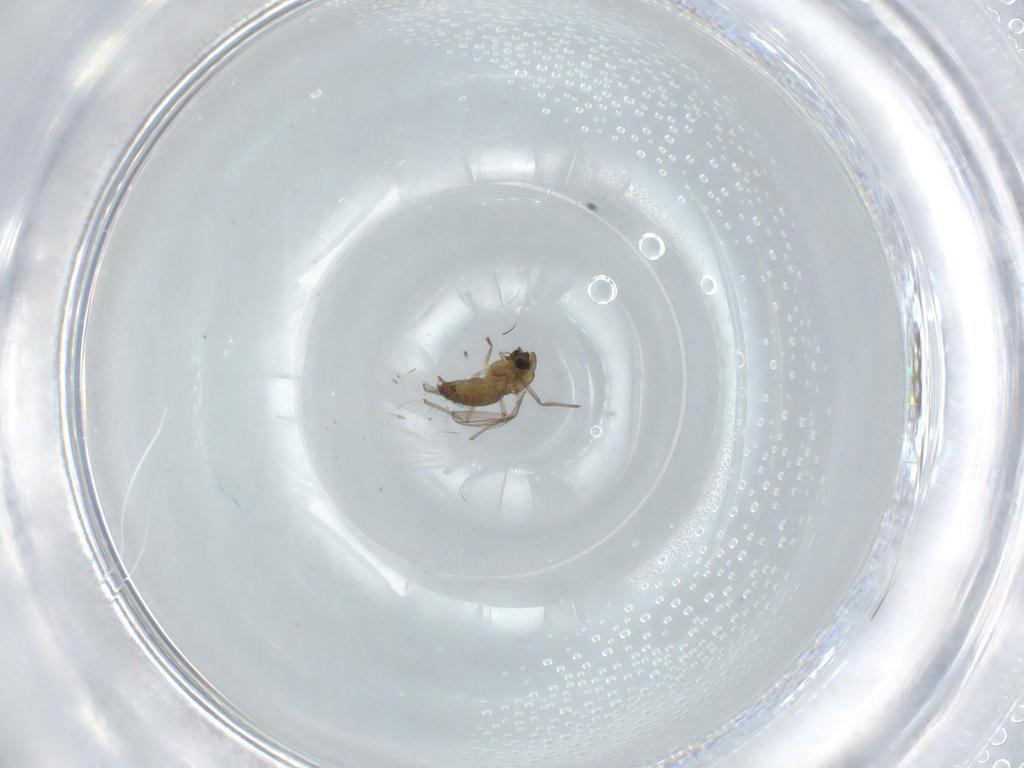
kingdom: Animalia
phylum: Arthropoda
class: Insecta
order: Diptera
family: Chironomidae
